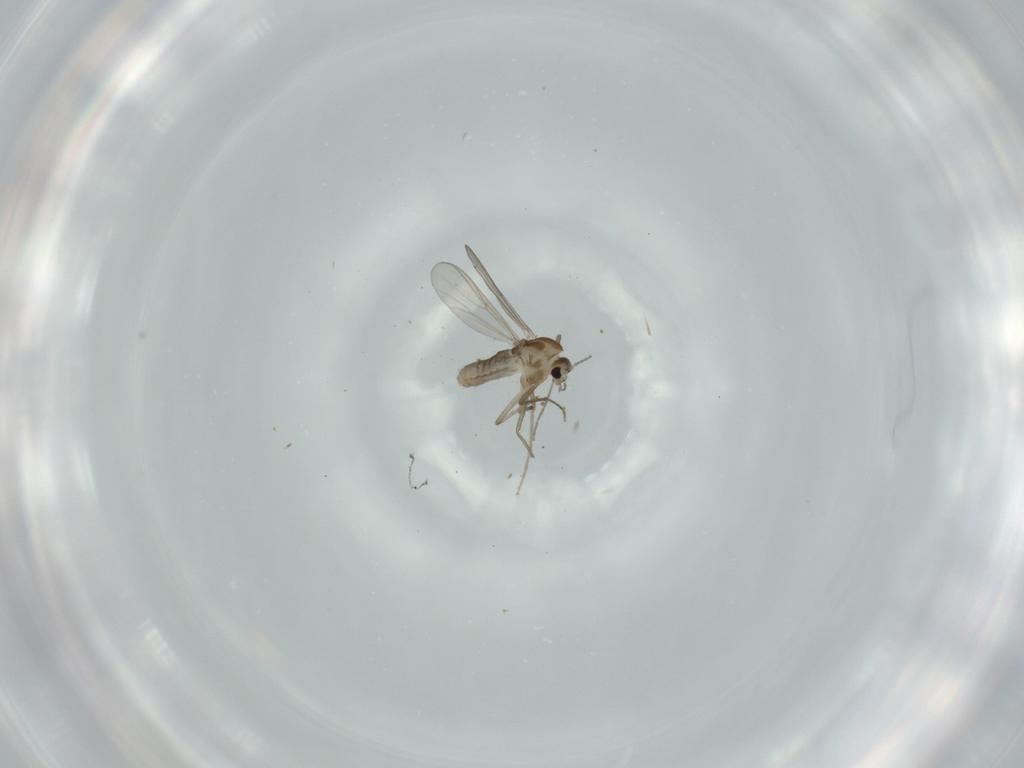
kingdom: Animalia
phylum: Arthropoda
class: Insecta
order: Diptera
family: Chironomidae
